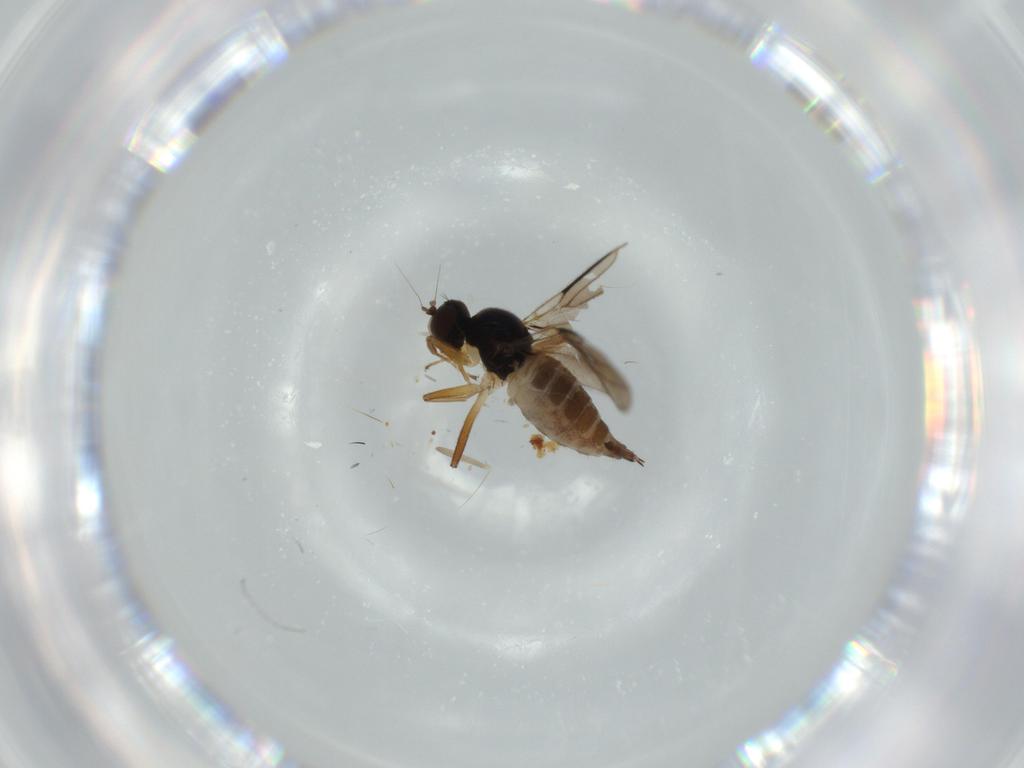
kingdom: Animalia
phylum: Arthropoda
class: Insecta
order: Diptera
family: Hybotidae
